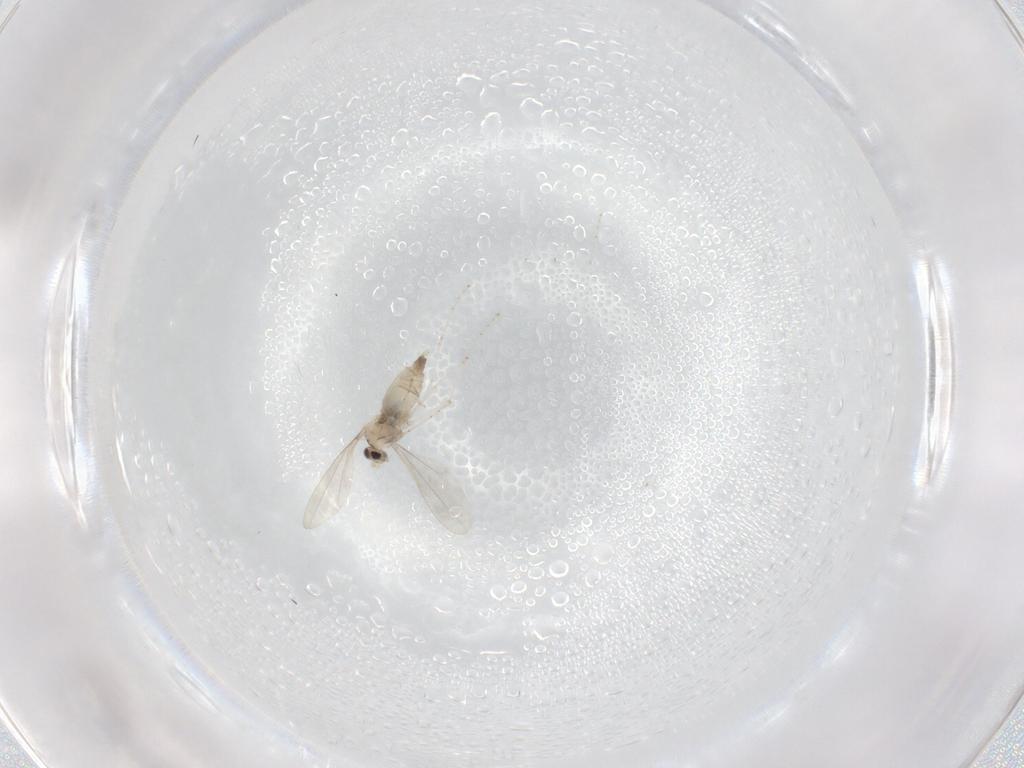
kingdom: Animalia
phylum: Arthropoda
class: Insecta
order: Diptera
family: Ceratopogonidae
